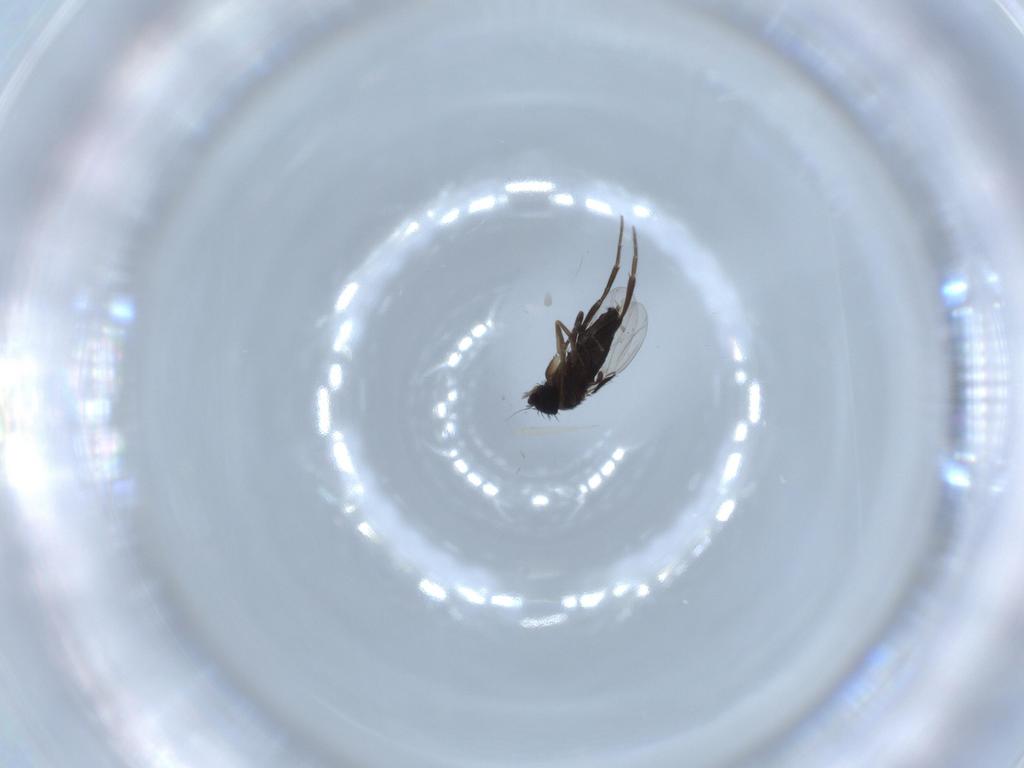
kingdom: Animalia
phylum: Arthropoda
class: Insecta
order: Diptera
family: Phoridae
